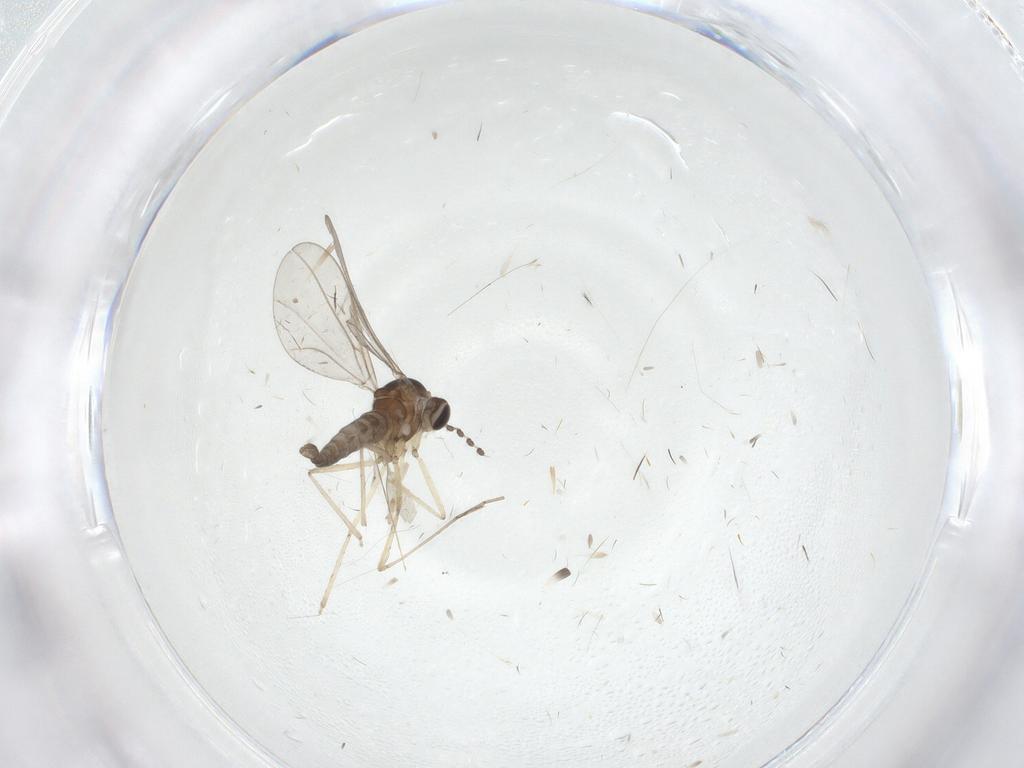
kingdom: Animalia
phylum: Arthropoda
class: Insecta
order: Diptera
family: Cecidomyiidae
